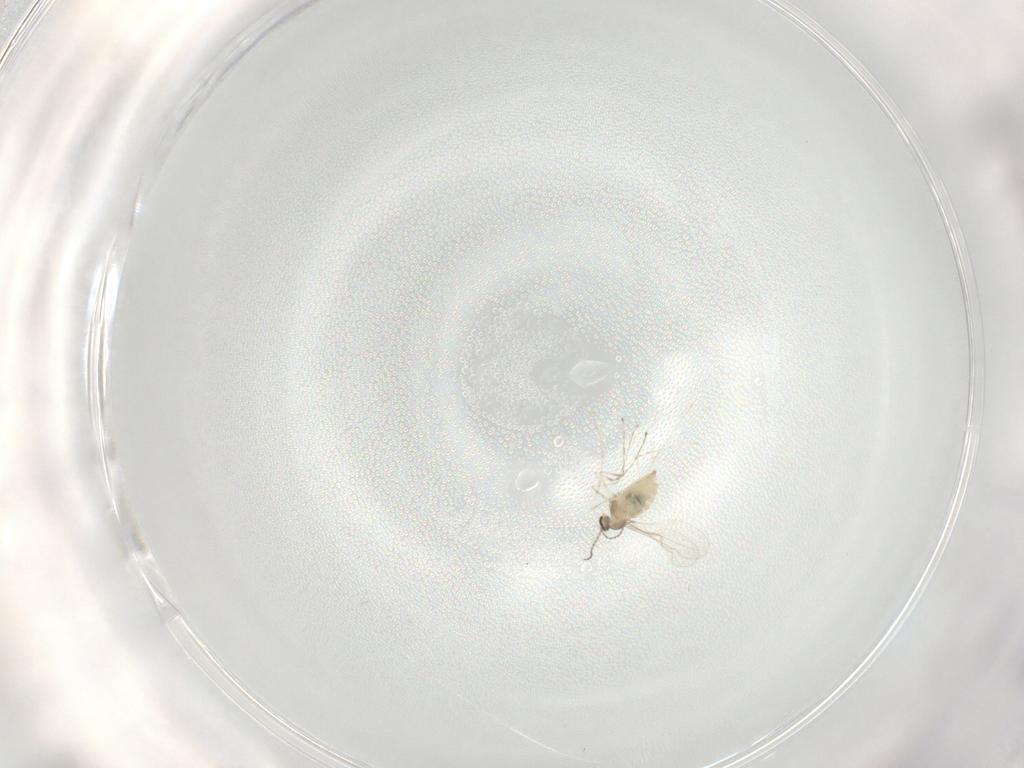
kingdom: Animalia
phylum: Arthropoda
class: Insecta
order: Diptera
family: Cecidomyiidae
